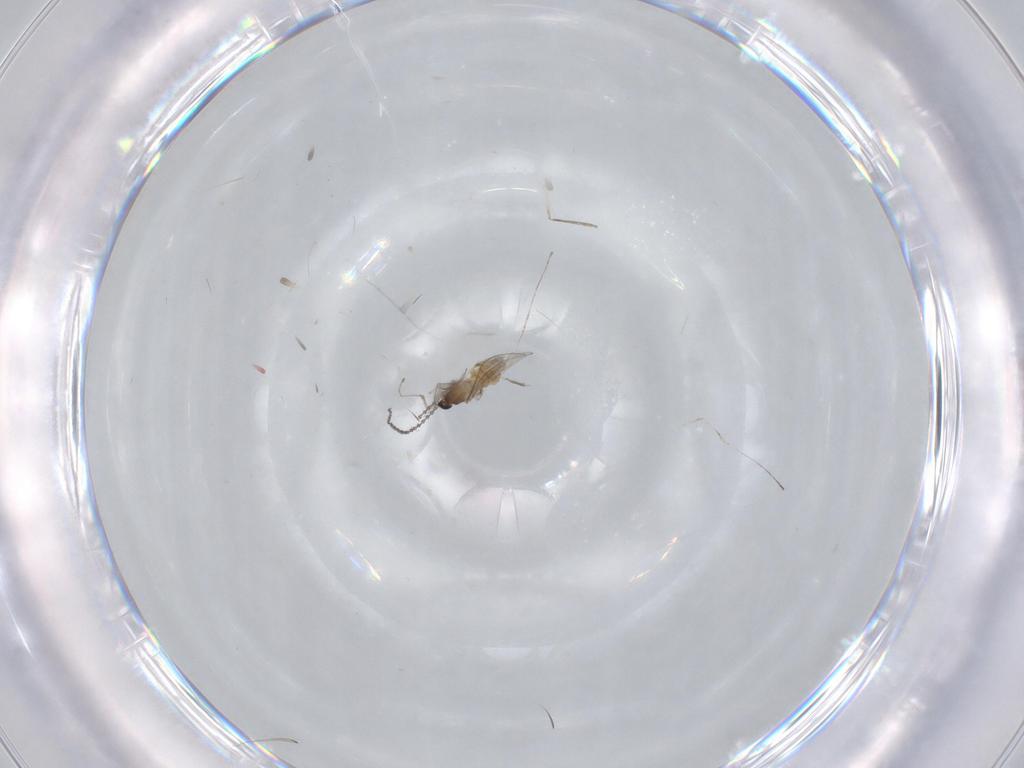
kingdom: Animalia
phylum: Arthropoda
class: Insecta
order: Diptera
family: Cecidomyiidae
